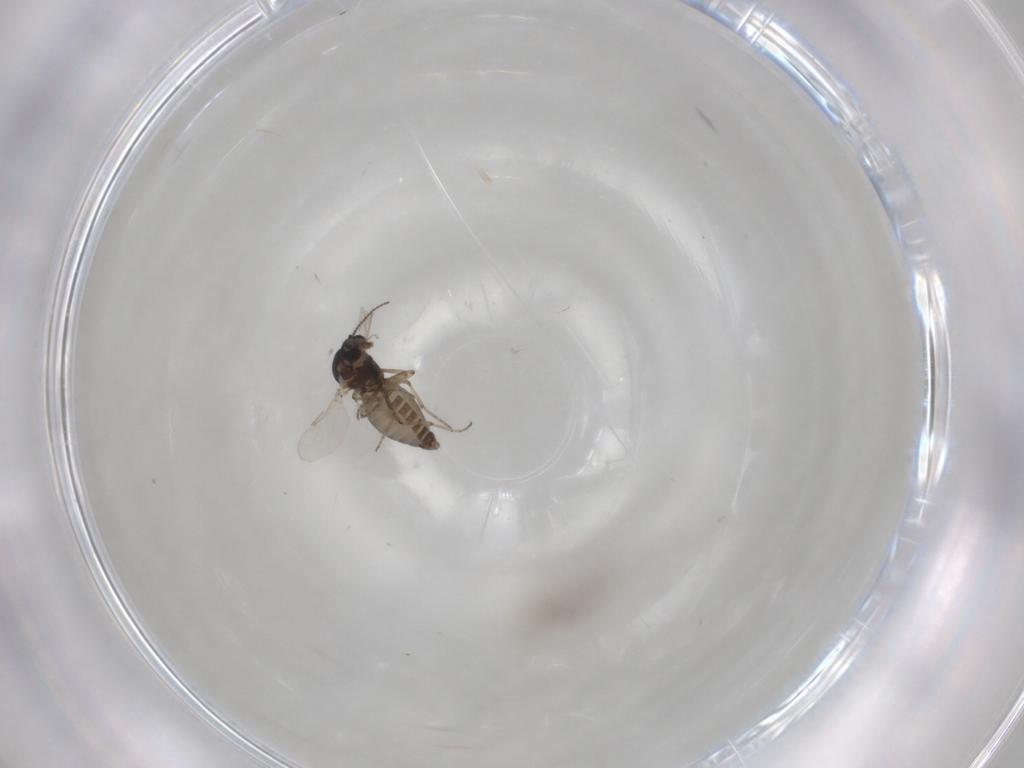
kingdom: Animalia
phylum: Arthropoda
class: Insecta
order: Diptera
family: Ceratopogonidae
